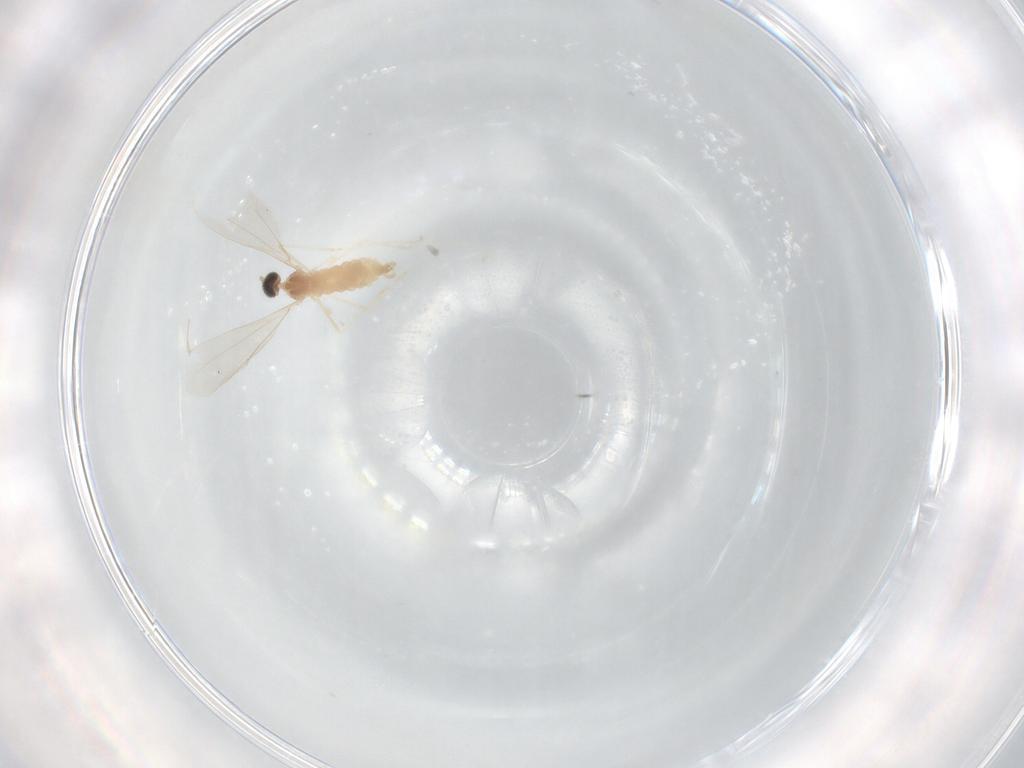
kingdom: Animalia
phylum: Arthropoda
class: Insecta
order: Diptera
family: Cecidomyiidae
